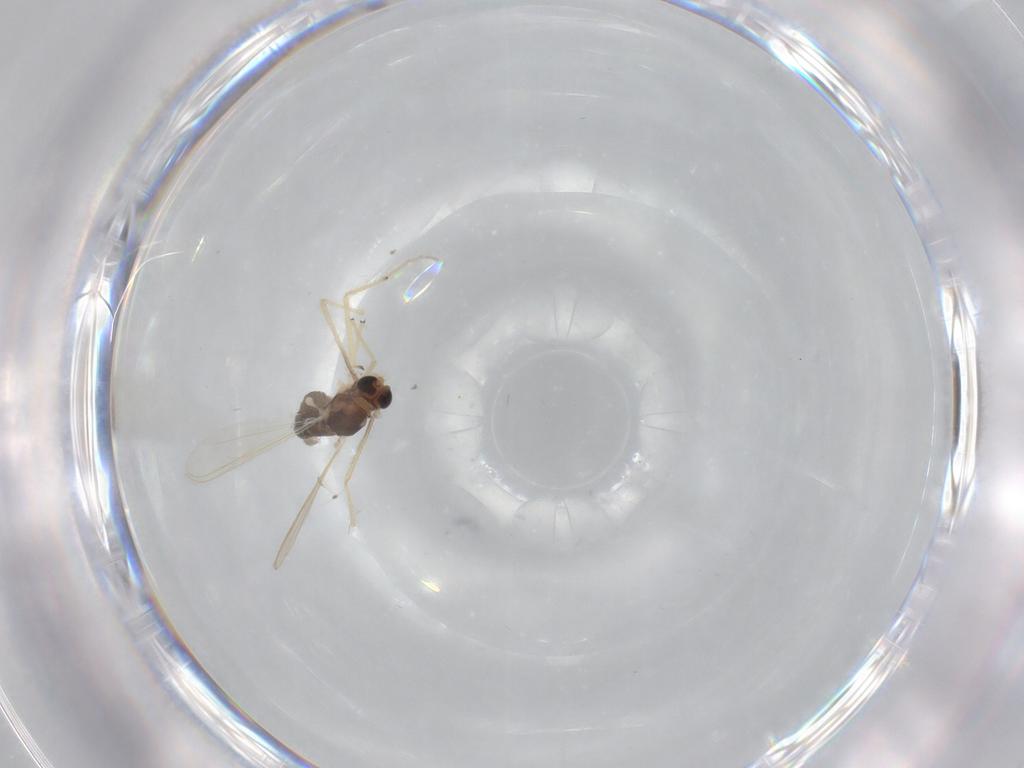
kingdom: Animalia
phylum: Arthropoda
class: Insecta
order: Diptera
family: Chironomidae
